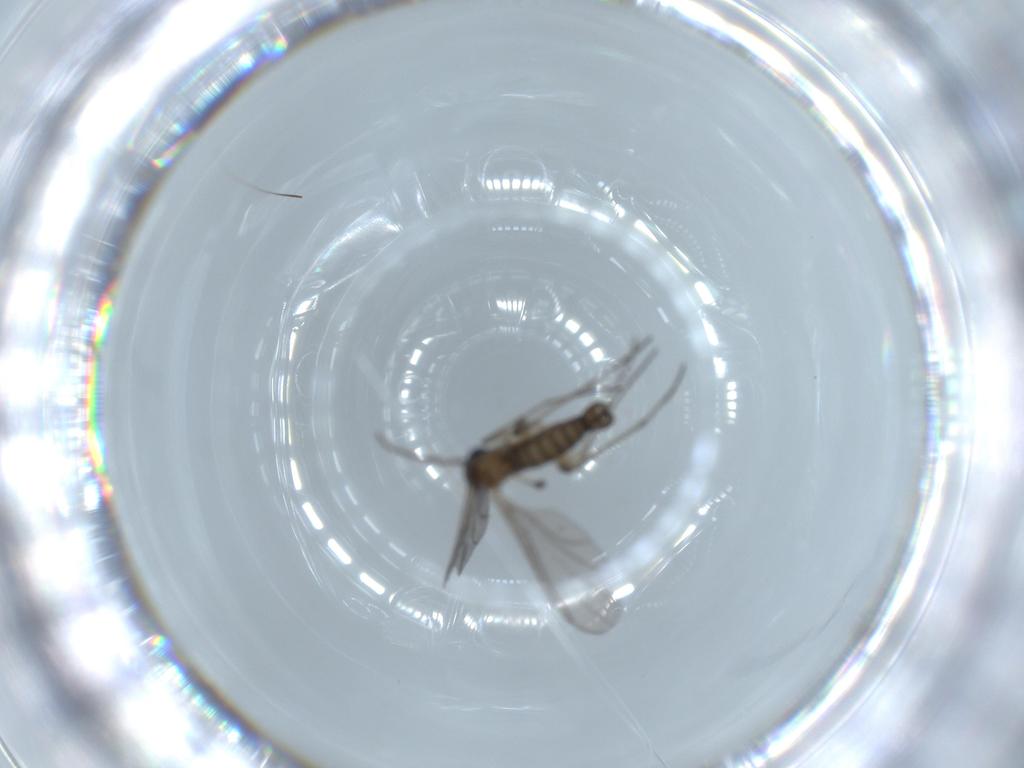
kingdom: Animalia
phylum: Arthropoda
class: Insecta
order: Diptera
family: Sciaridae
